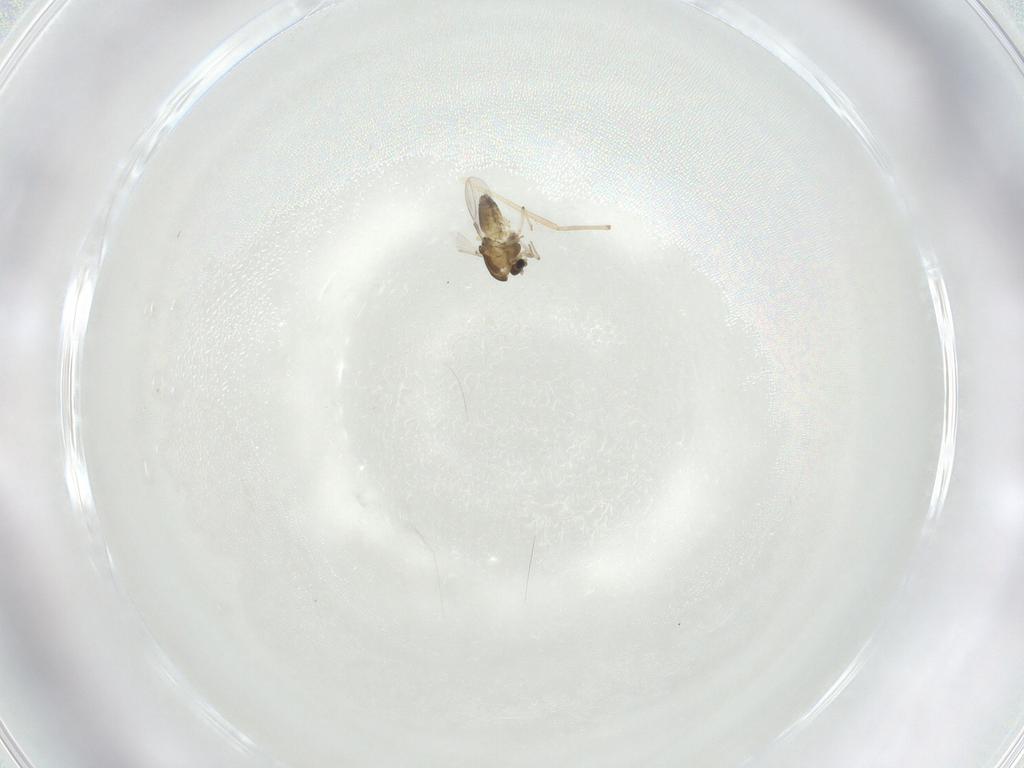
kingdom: Animalia
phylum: Arthropoda
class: Insecta
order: Diptera
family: Chironomidae
